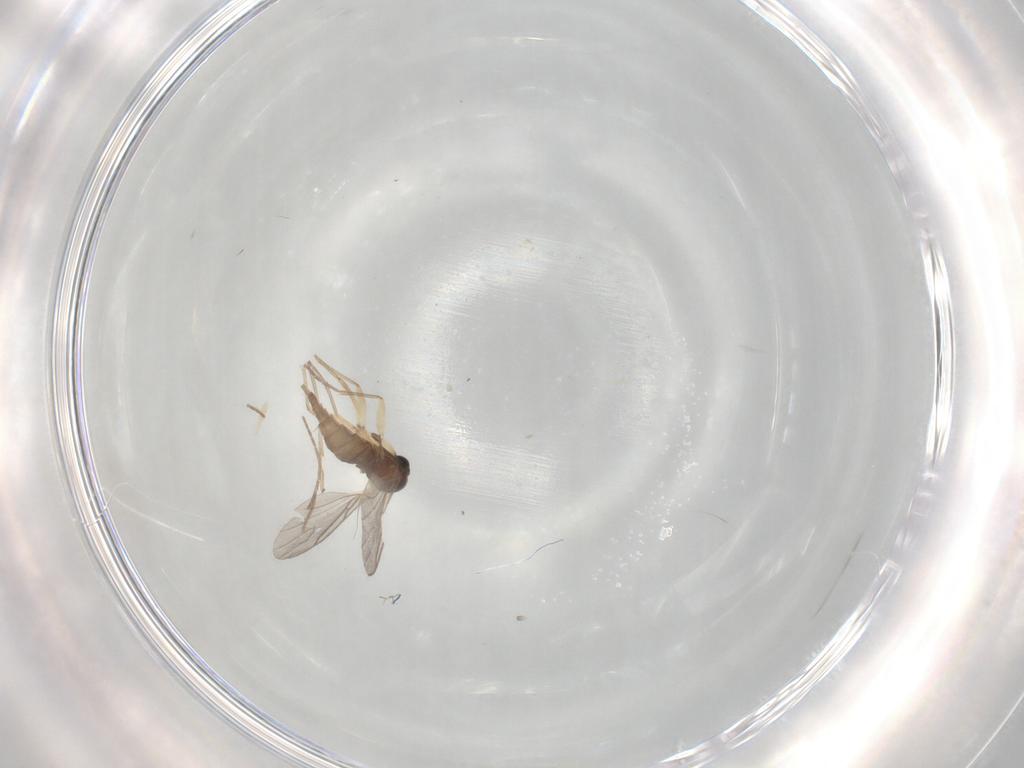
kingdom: Animalia
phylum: Arthropoda
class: Insecta
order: Diptera
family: Sciaridae
